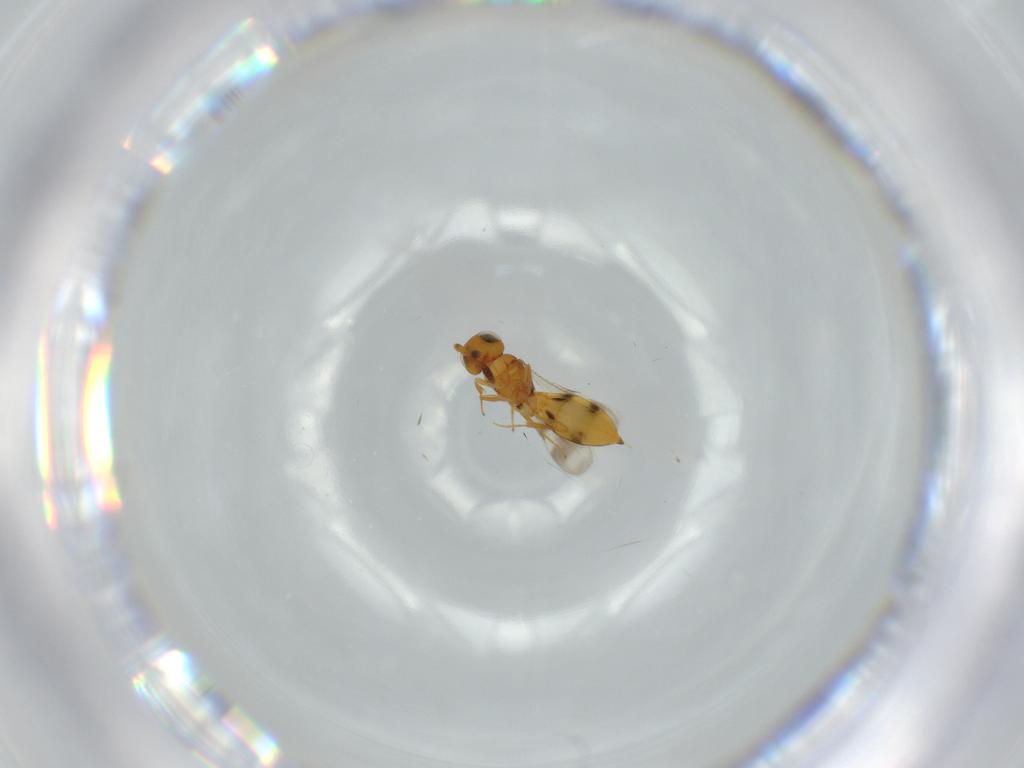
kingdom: Animalia
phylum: Arthropoda
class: Insecta
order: Hymenoptera
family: Scelionidae
